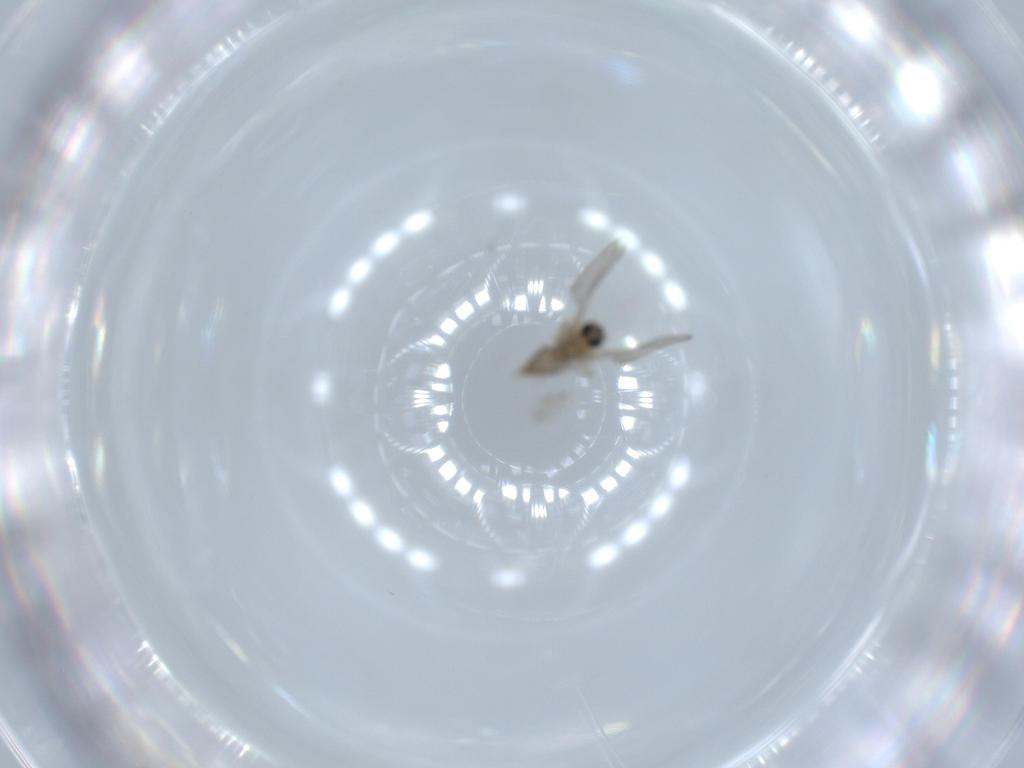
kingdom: Animalia
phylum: Arthropoda
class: Insecta
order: Diptera
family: Cecidomyiidae
